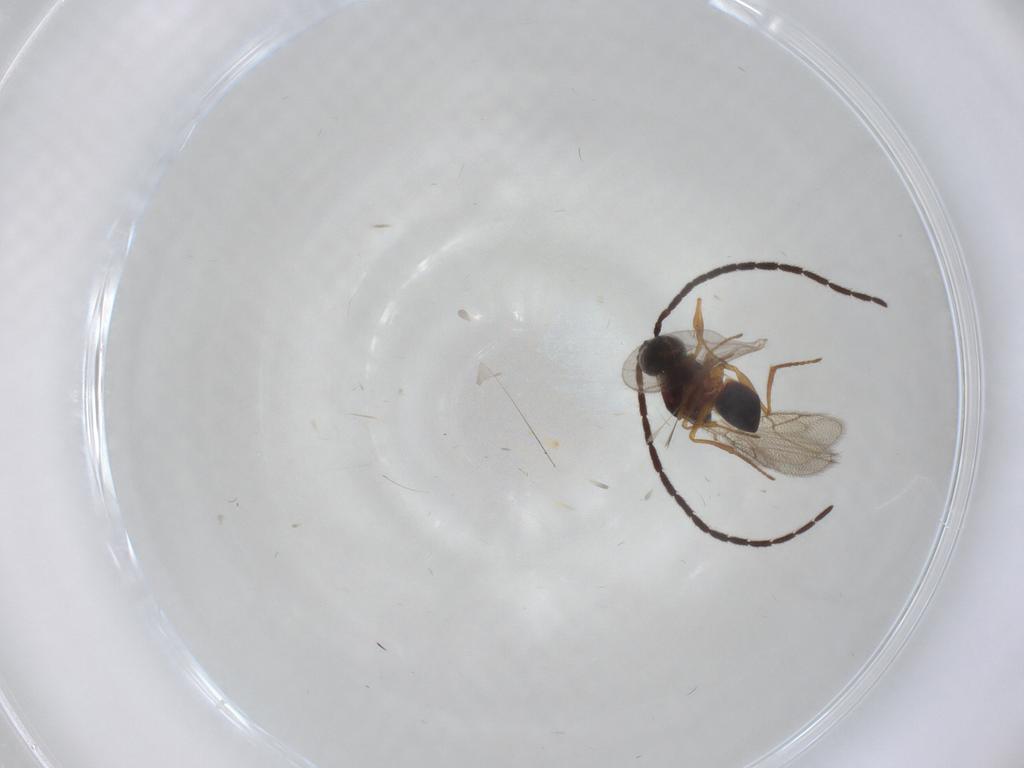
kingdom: Animalia
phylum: Arthropoda
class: Insecta
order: Hymenoptera
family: Figitidae
